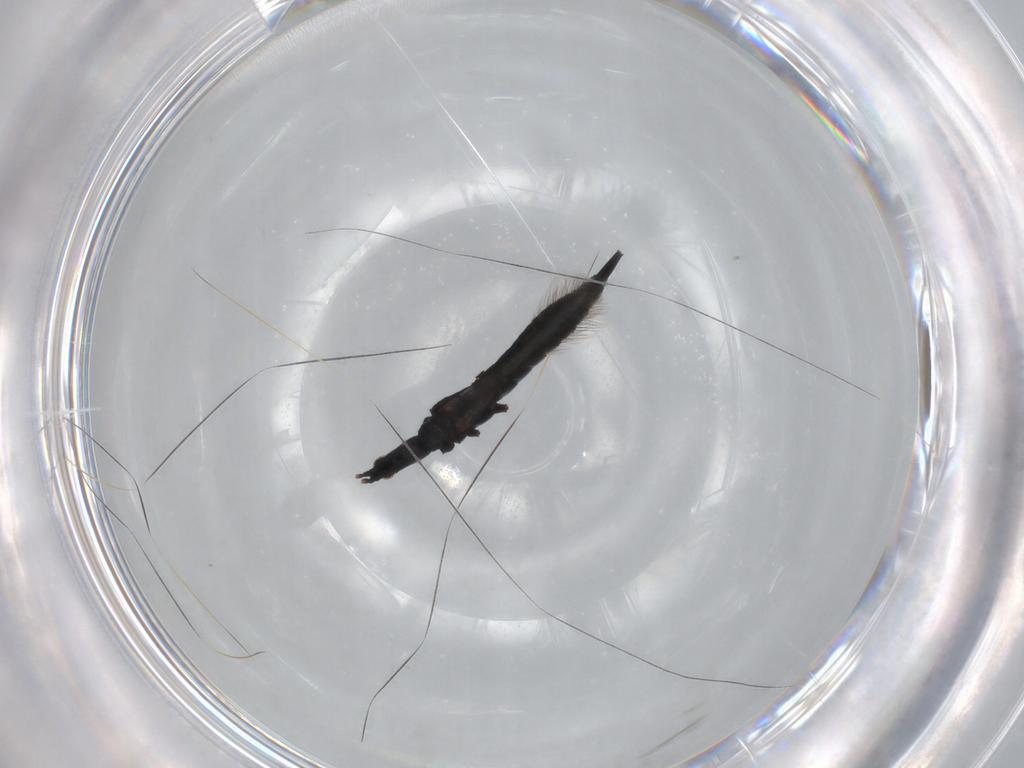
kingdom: Animalia
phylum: Arthropoda
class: Insecta
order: Thysanoptera
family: Phlaeothripidae
